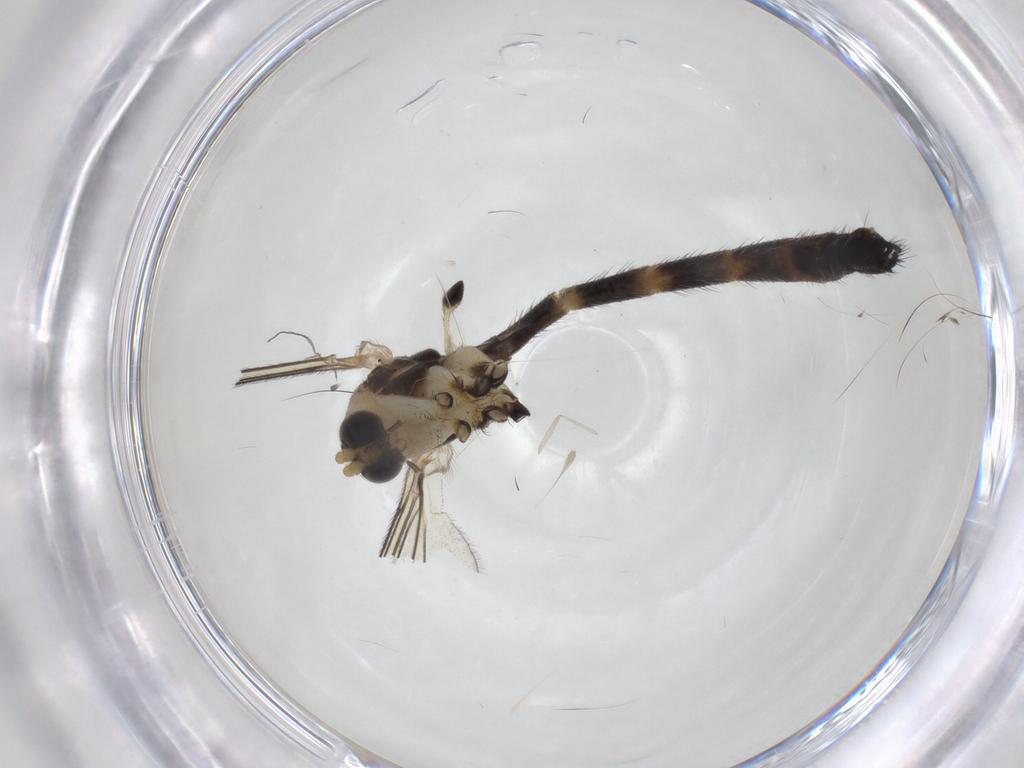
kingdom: Animalia
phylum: Arthropoda
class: Insecta
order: Diptera
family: Sciaridae
